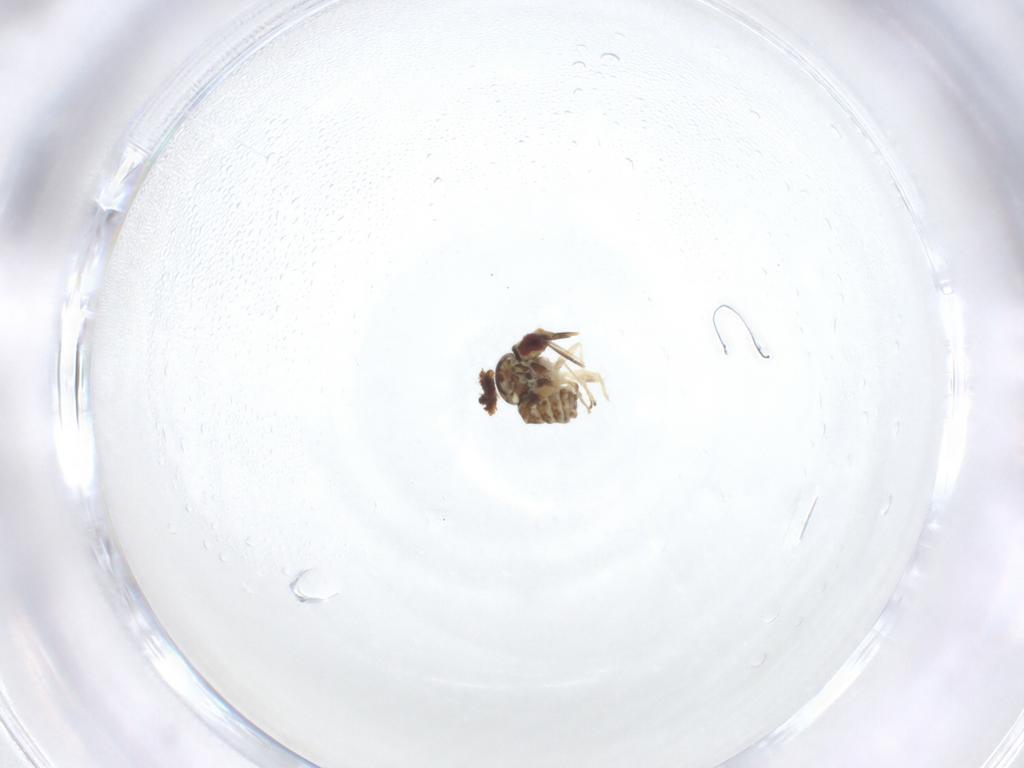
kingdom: Animalia
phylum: Arthropoda
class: Insecta
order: Diptera
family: Bombyliidae
